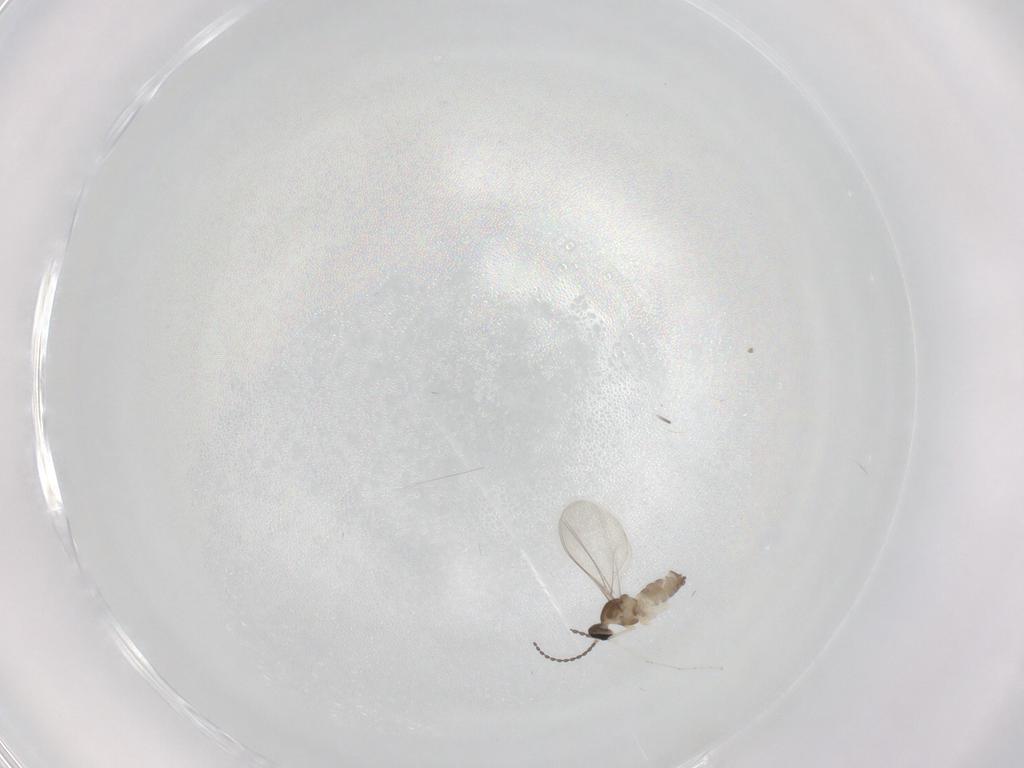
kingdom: Animalia
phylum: Arthropoda
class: Insecta
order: Diptera
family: Cecidomyiidae
